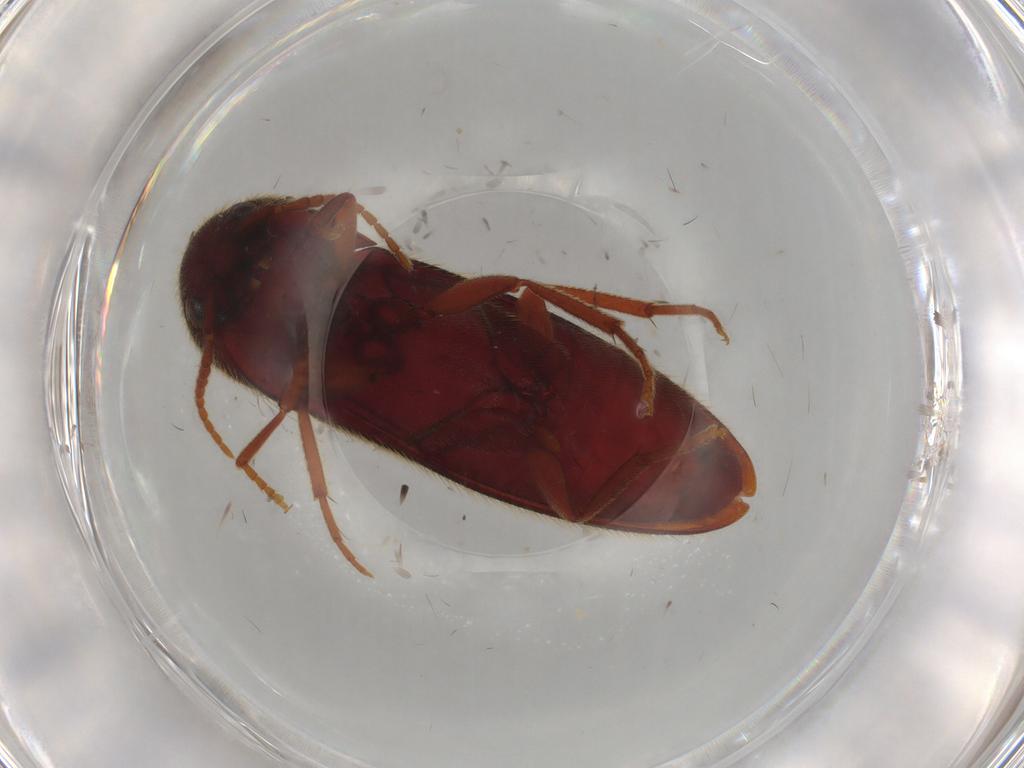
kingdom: Animalia
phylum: Arthropoda
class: Insecta
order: Coleoptera
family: Eucnemidae
